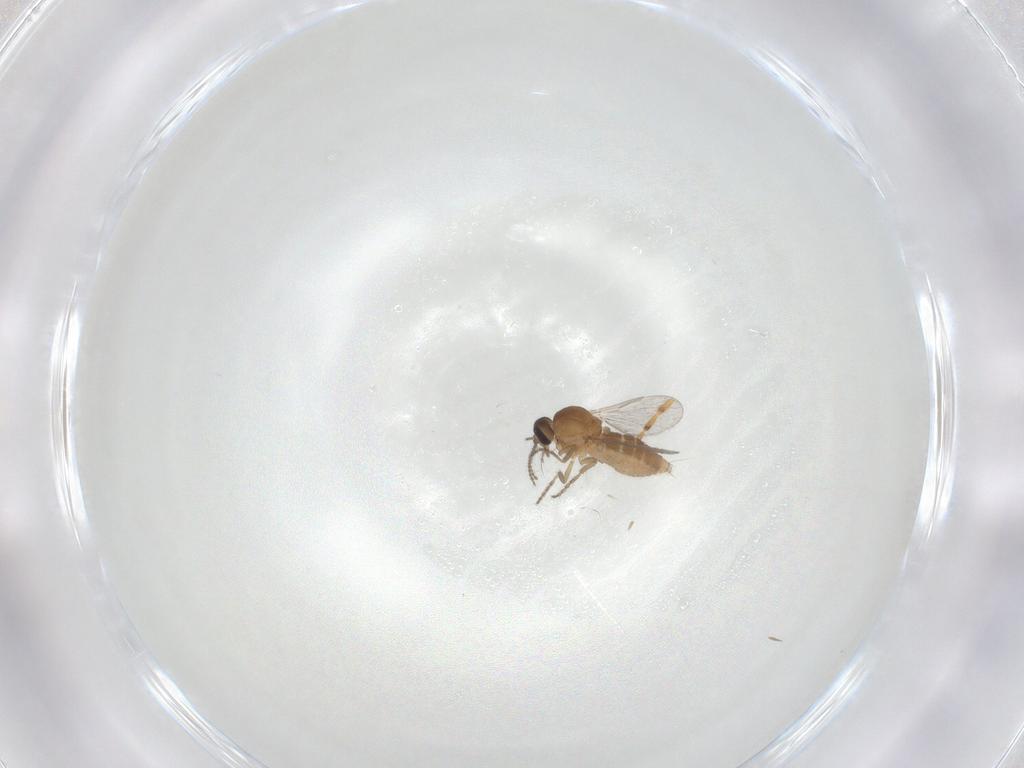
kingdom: Animalia
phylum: Arthropoda
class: Insecta
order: Diptera
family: Ceratopogonidae
